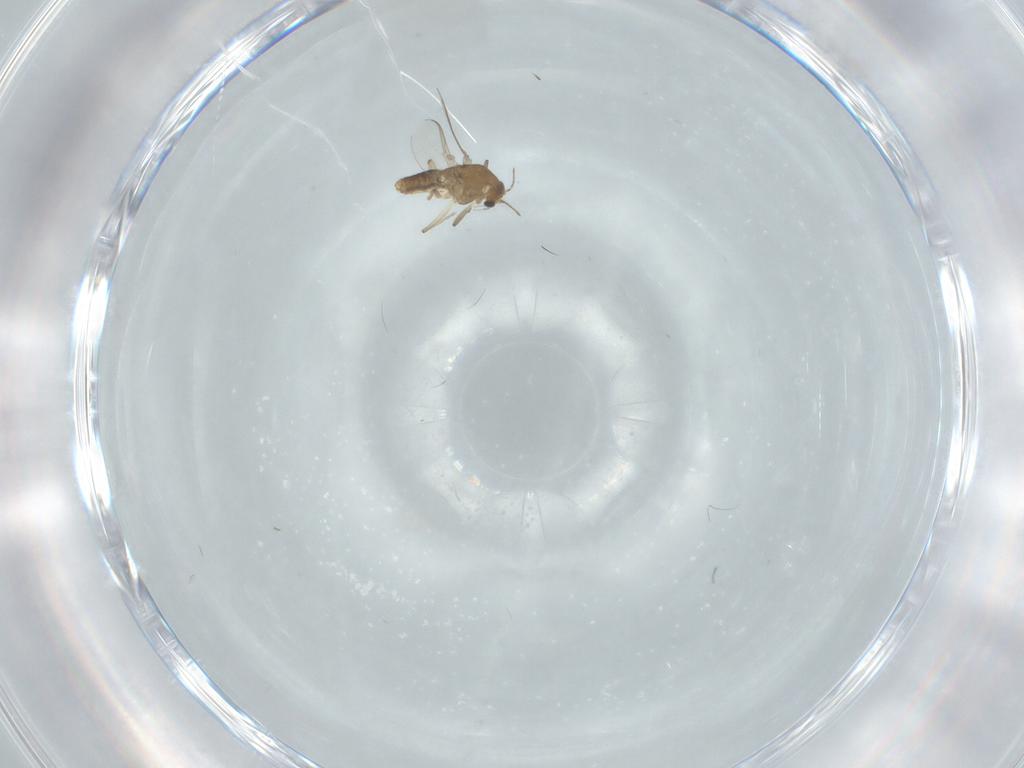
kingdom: Animalia
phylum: Arthropoda
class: Insecta
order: Diptera
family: Chironomidae
